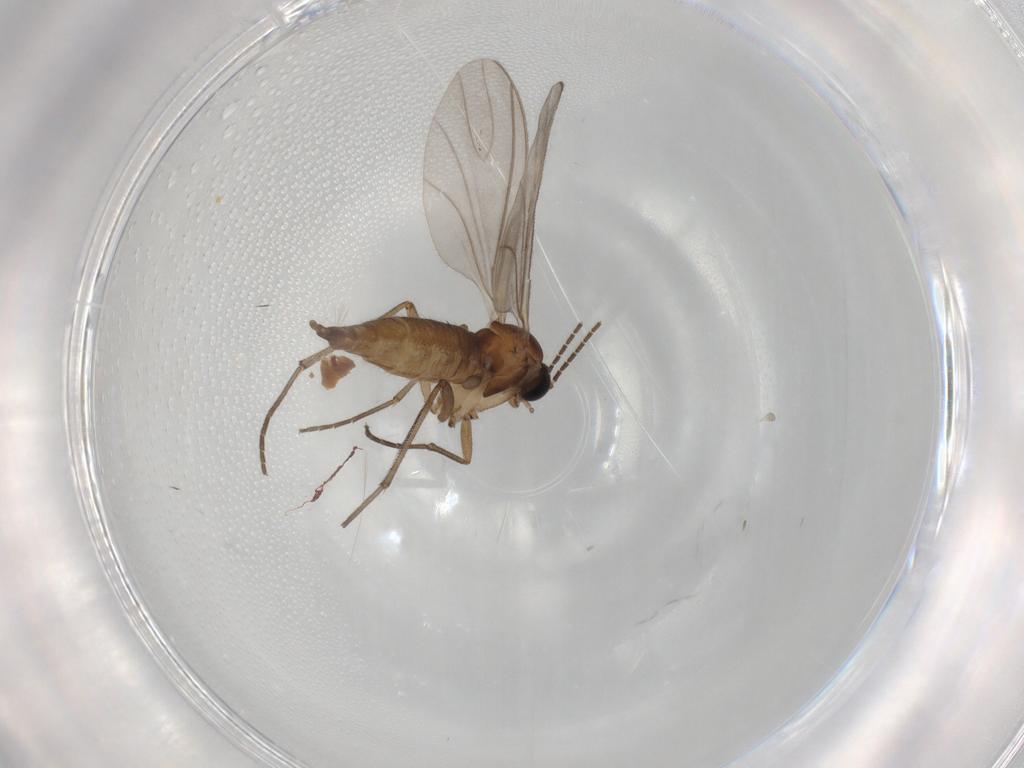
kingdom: Animalia
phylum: Arthropoda
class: Insecta
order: Diptera
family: Sciaridae
